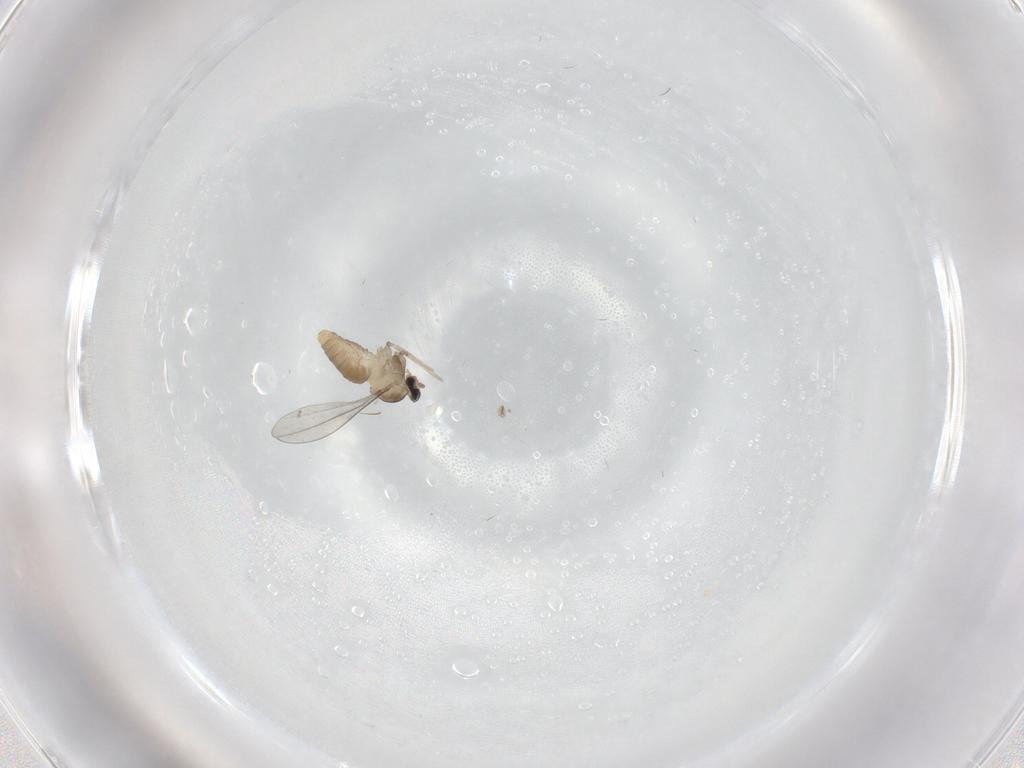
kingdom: Animalia
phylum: Arthropoda
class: Insecta
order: Diptera
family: Cecidomyiidae
